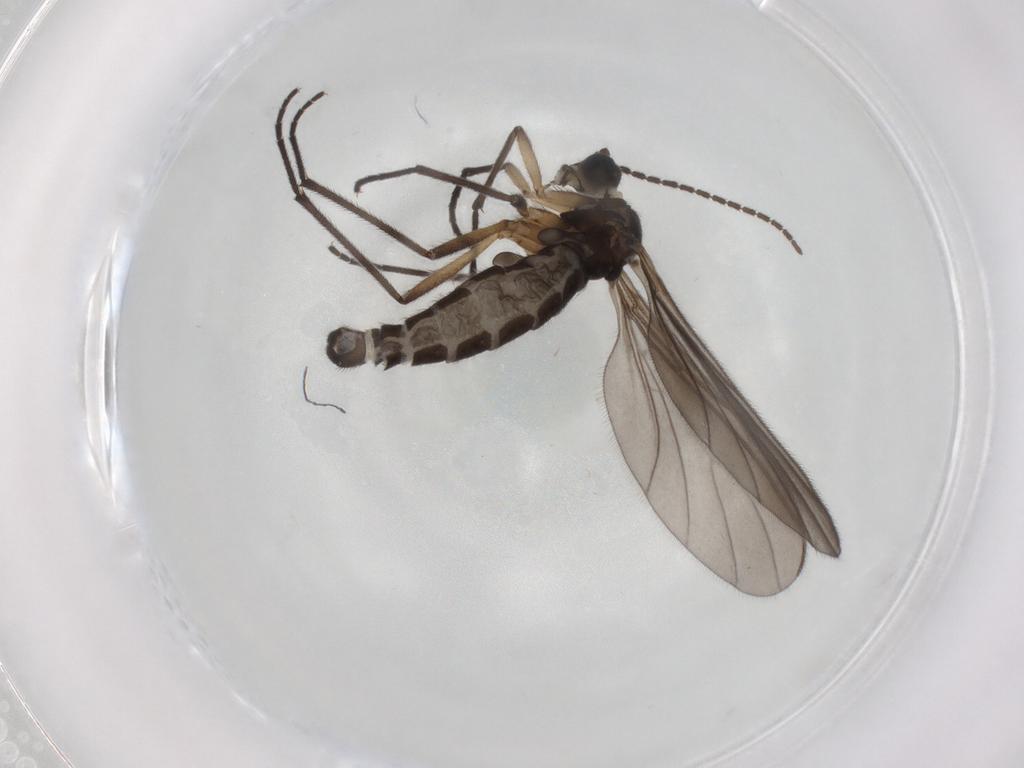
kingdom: Animalia
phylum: Arthropoda
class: Insecta
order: Diptera
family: Sciaridae
